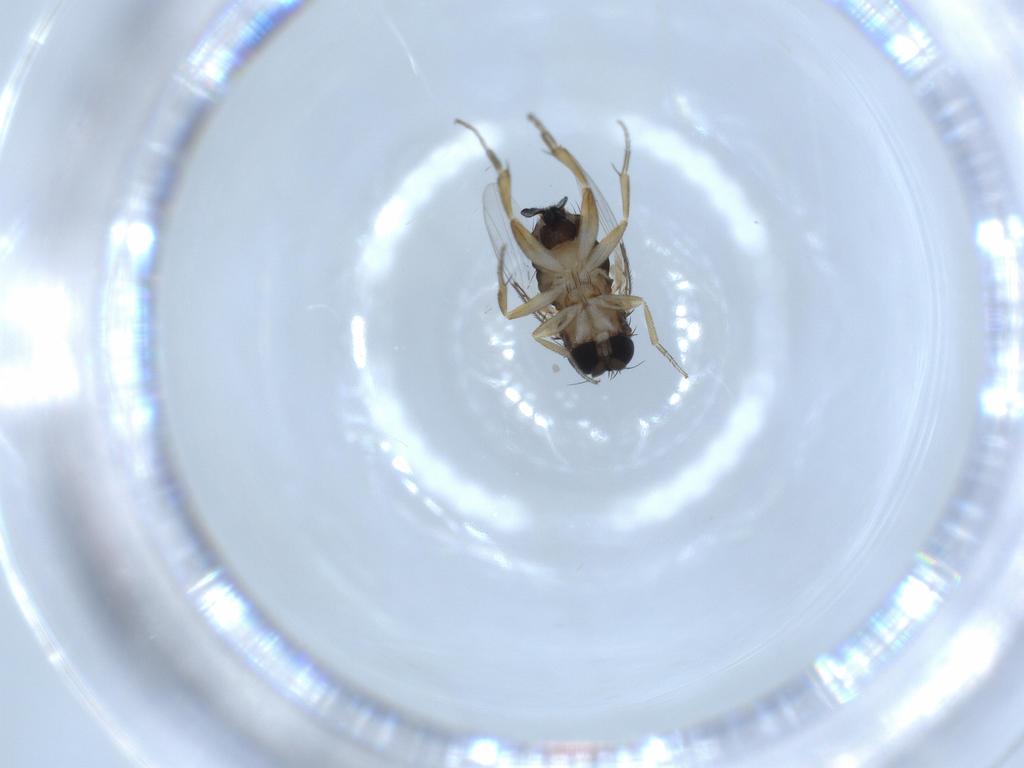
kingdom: Animalia
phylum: Arthropoda
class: Insecta
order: Diptera
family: Phoridae
